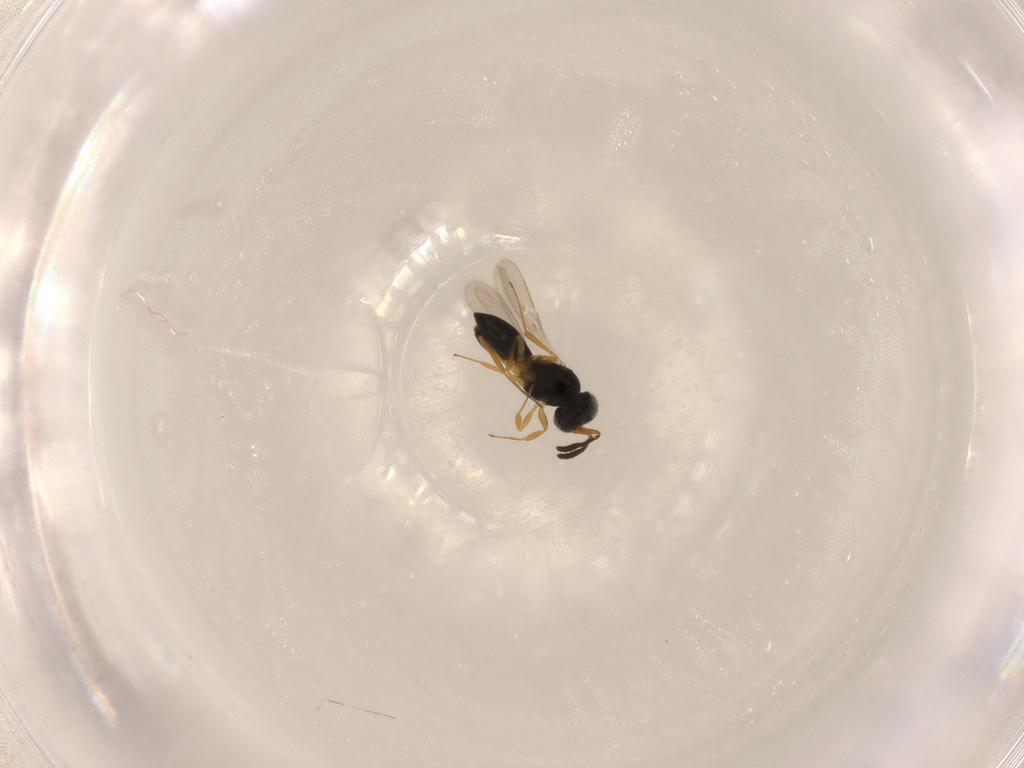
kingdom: Animalia
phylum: Arthropoda
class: Insecta
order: Hymenoptera
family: Scelionidae
